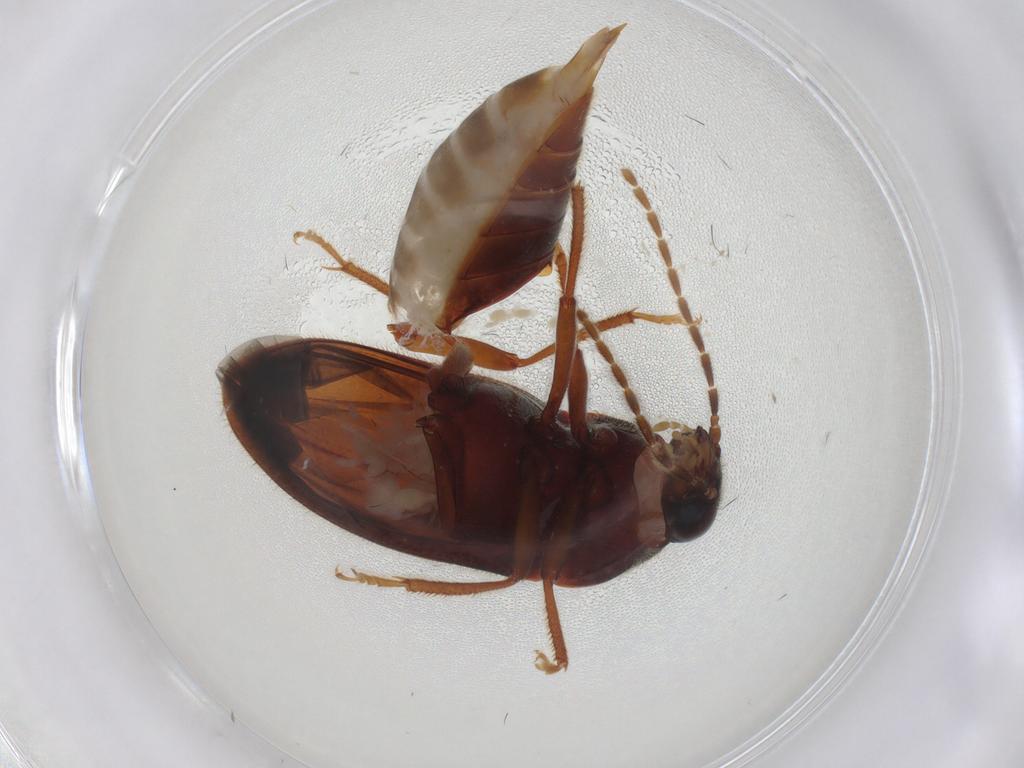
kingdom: Animalia
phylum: Arthropoda
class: Insecta
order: Coleoptera
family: Ptilodactylidae
